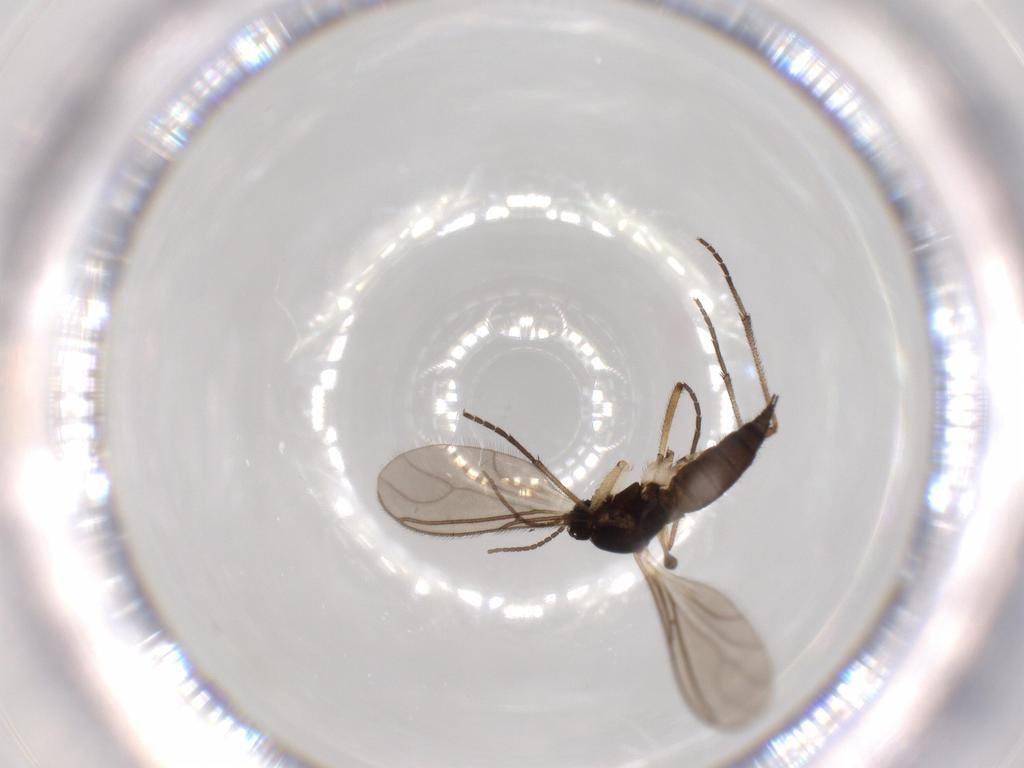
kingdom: Animalia
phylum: Arthropoda
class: Insecta
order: Diptera
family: Sciaridae
